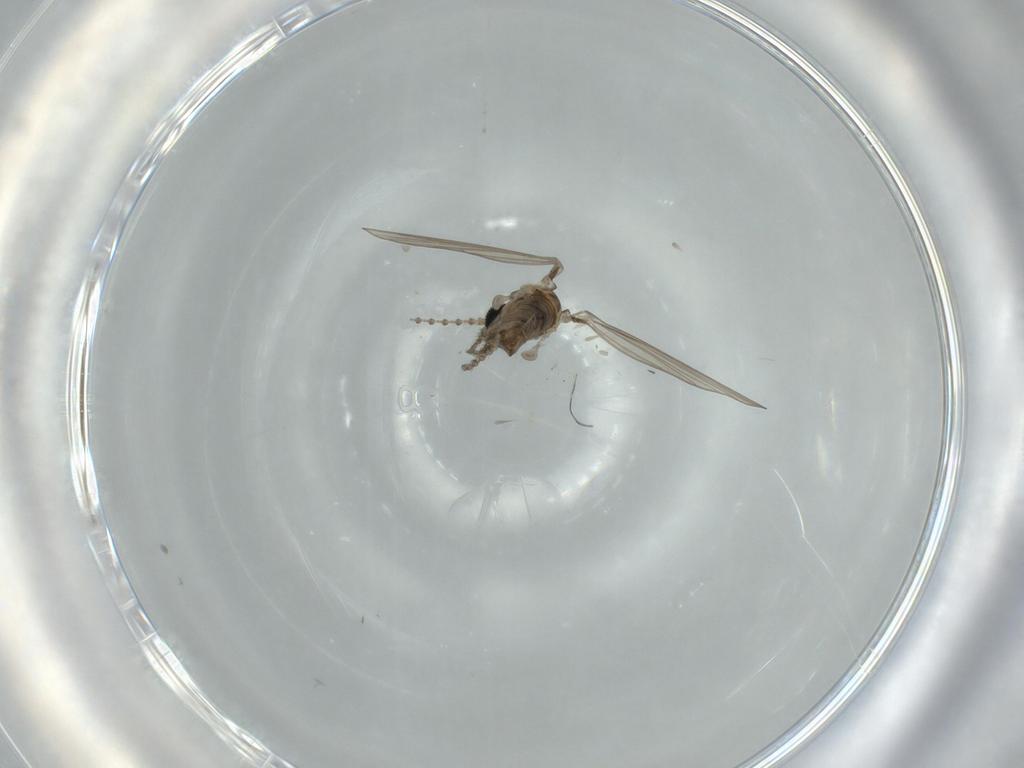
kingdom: Animalia
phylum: Arthropoda
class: Insecta
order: Diptera
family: Psychodidae
